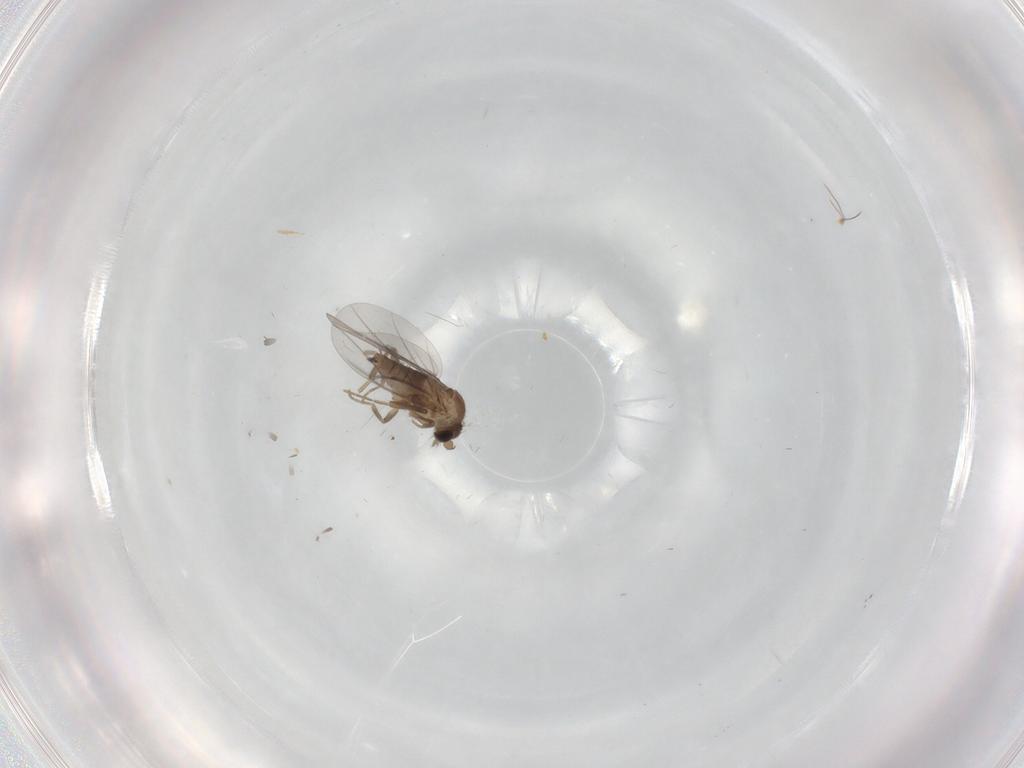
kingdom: Animalia
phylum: Arthropoda
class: Insecta
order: Diptera
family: Cecidomyiidae
